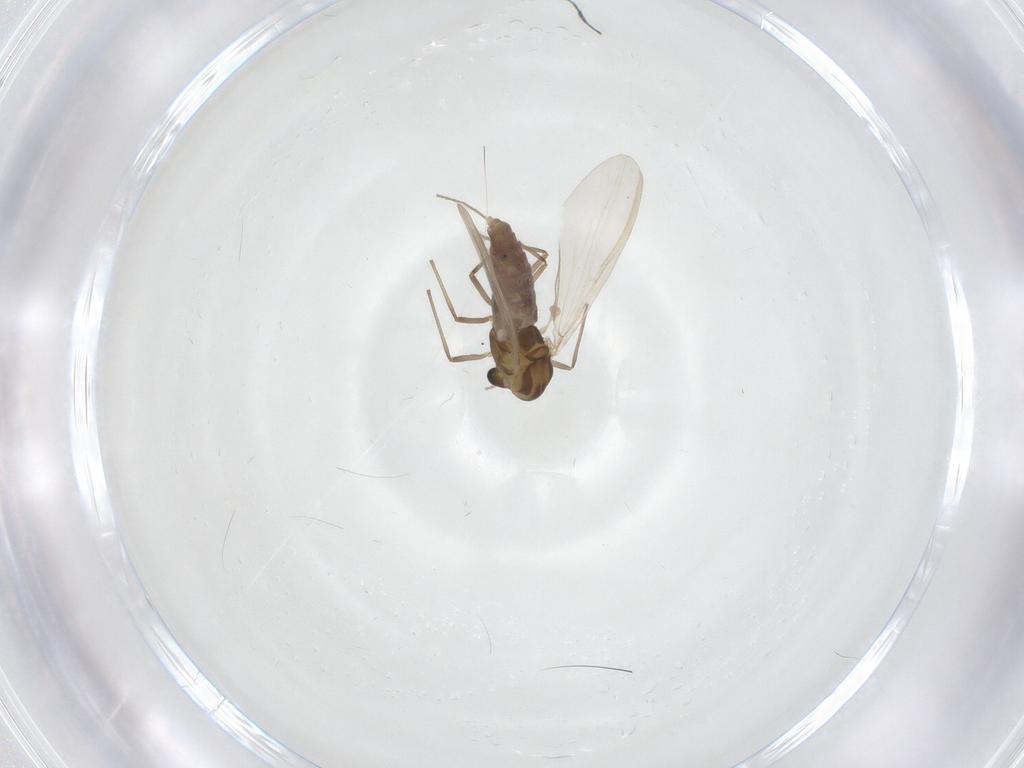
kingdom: Animalia
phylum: Arthropoda
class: Insecta
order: Diptera
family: Chironomidae
